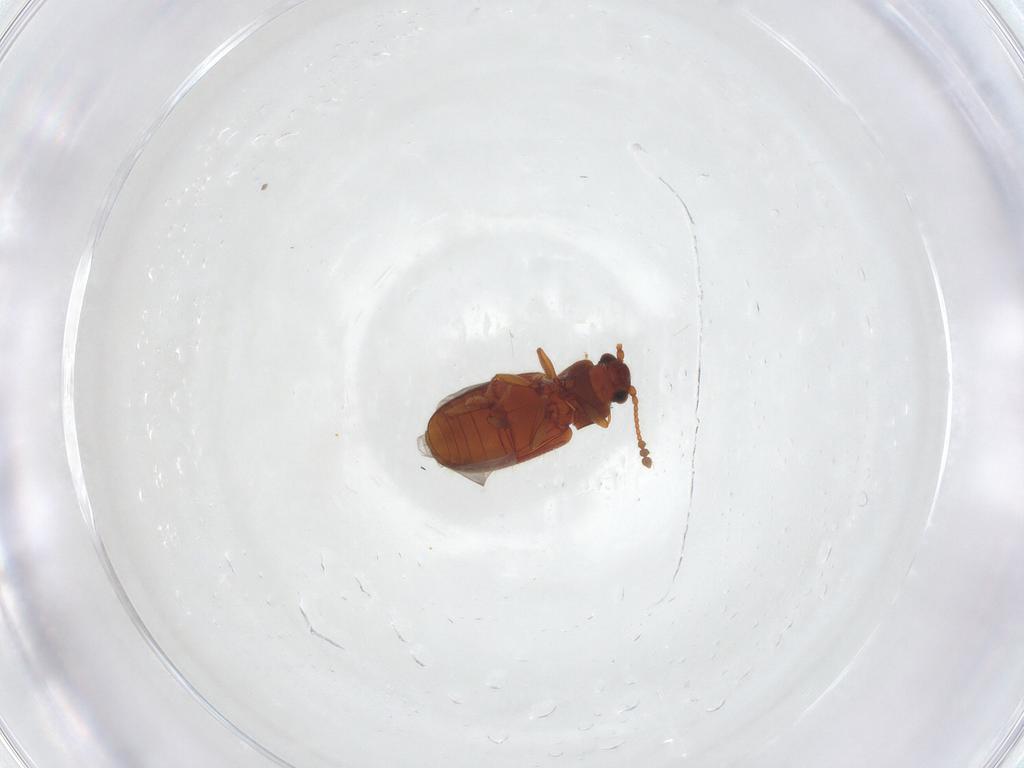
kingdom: Animalia
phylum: Arthropoda
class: Insecta
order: Coleoptera
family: Cryptophagidae
